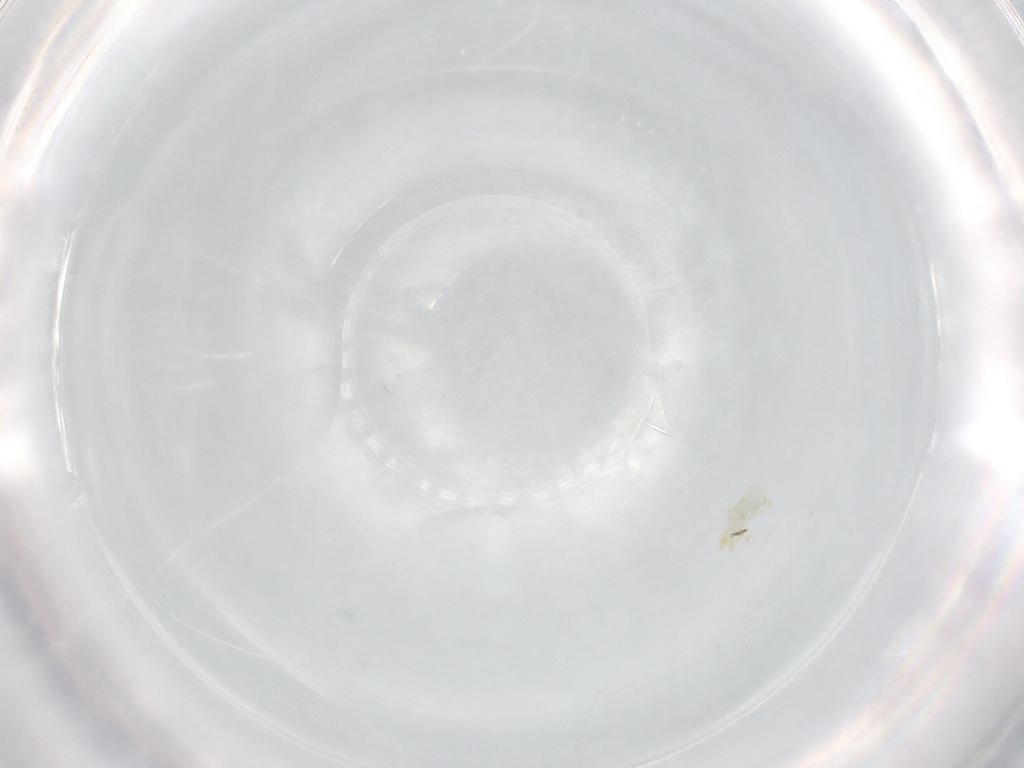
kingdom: Animalia
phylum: Arthropoda
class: Arachnida
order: Trombidiformes
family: Erythraeidae
